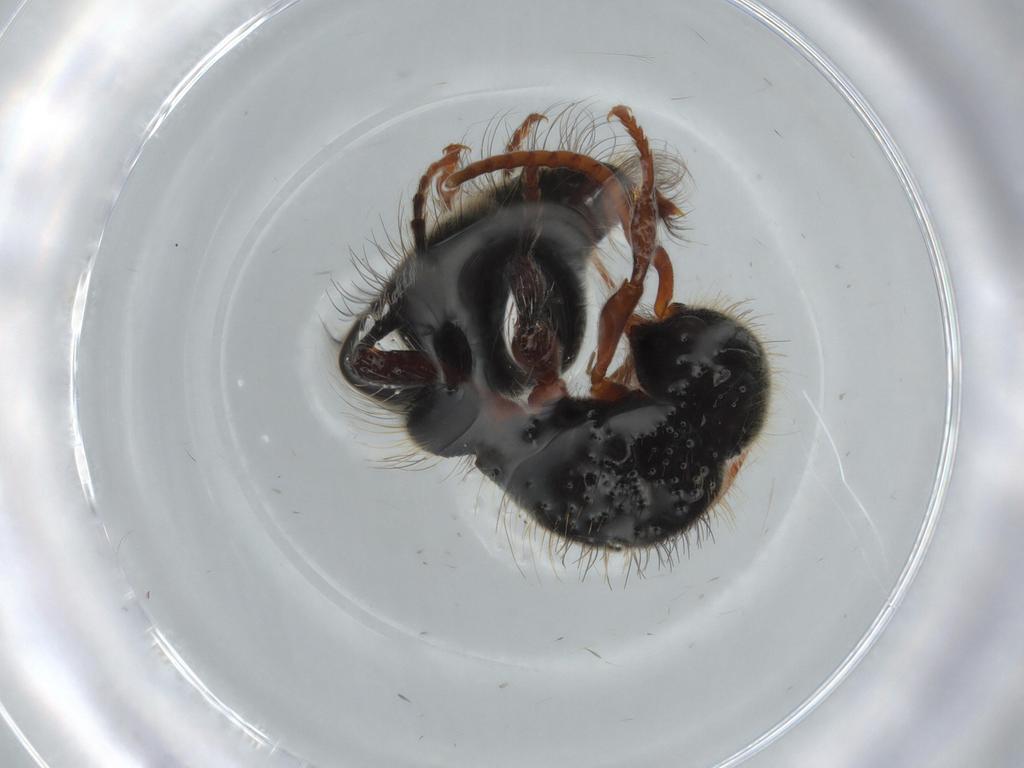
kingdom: Animalia
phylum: Arthropoda
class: Insecta
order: Hymenoptera
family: Diapriidae
